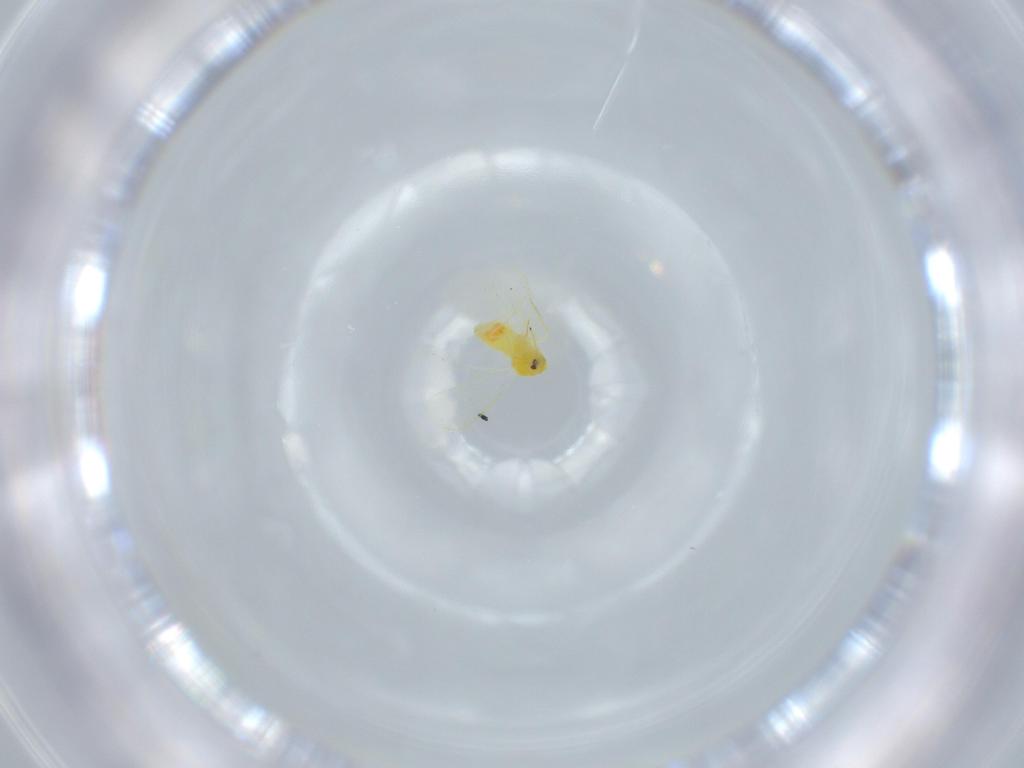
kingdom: Animalia
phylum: Arthropoda
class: Insecta
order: Hemiptera
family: Aleyrodidae
